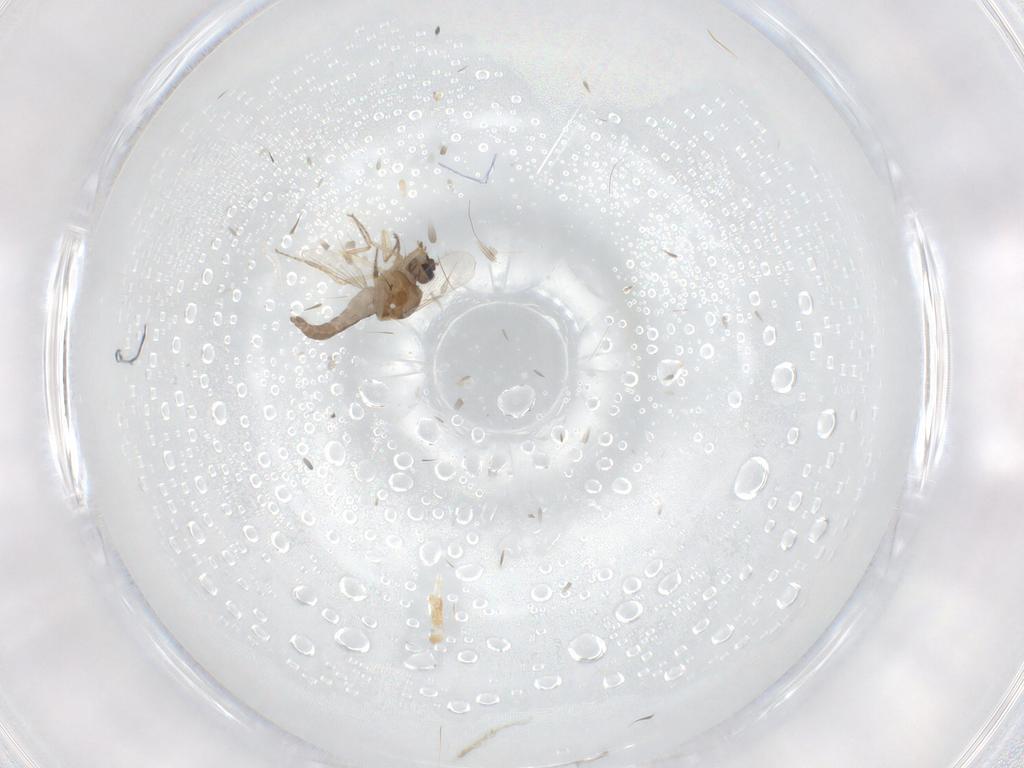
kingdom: Animalia
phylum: Arthropoda
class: Insecta
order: Diptera
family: Ceratopogonidae
